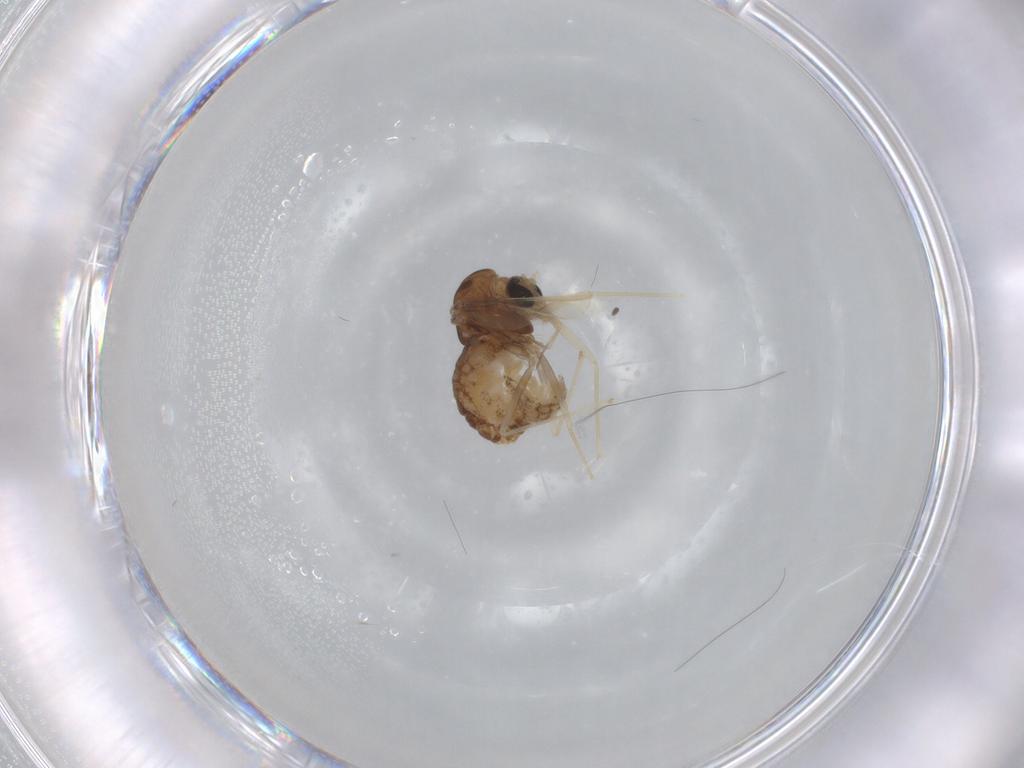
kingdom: Animalia
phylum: Arthropoda
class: Insecta
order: Diptera
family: Chironomidae
